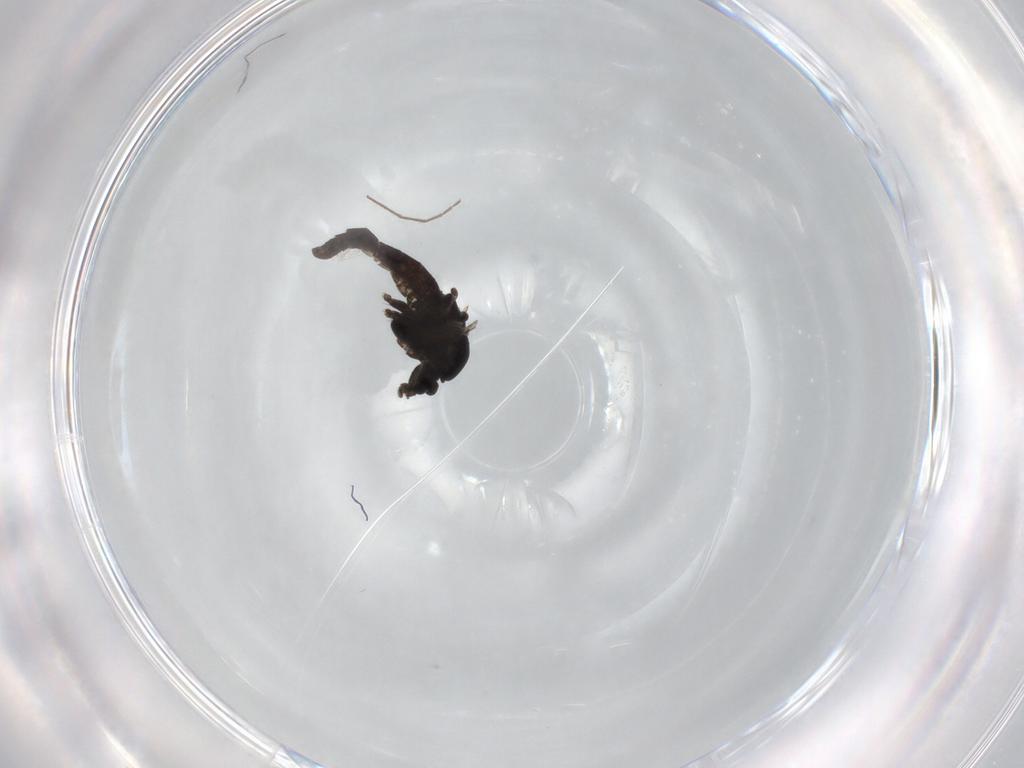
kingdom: Animalia
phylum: Arthropoda
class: Insecta
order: Diptera
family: Chironomidae
